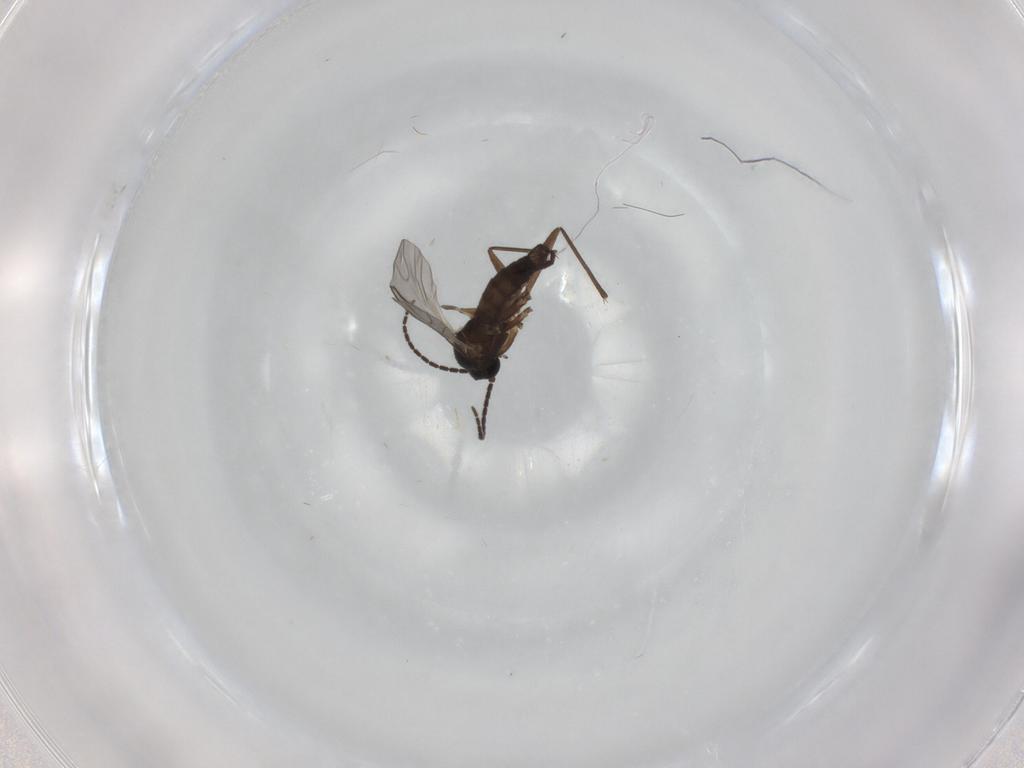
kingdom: Animalia
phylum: Arthropoda
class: Insecta
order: Diptera
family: Sciaridae
